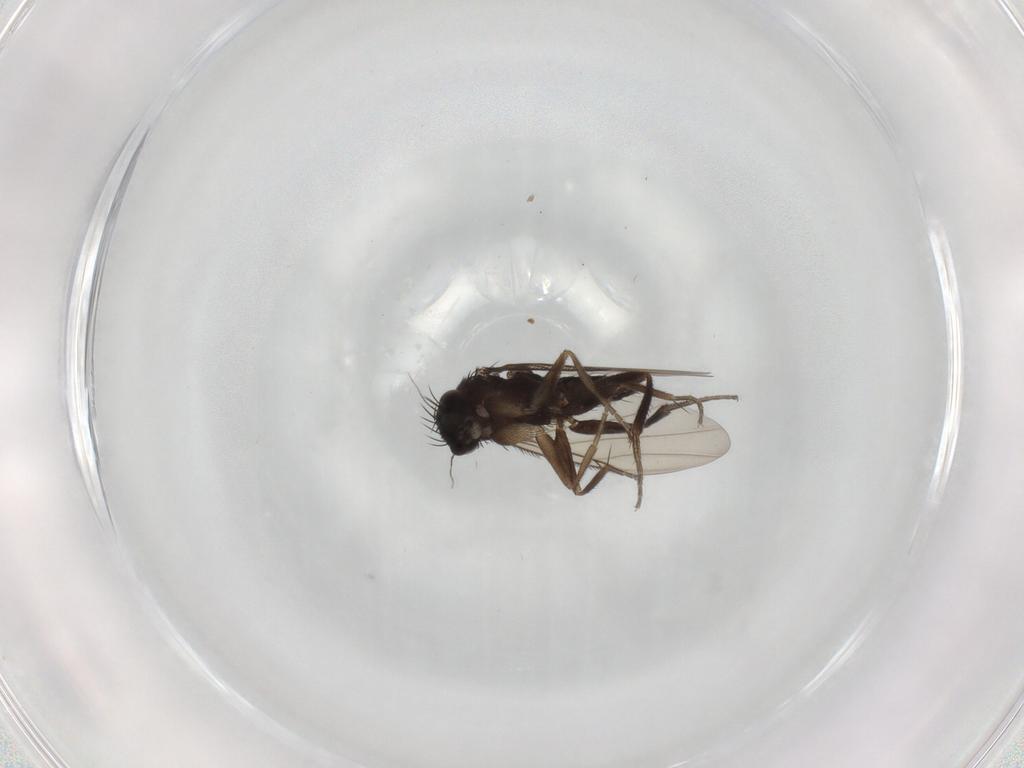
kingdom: Animalia
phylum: Arthropoda
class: Insecta
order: Diptera
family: Phoridae
